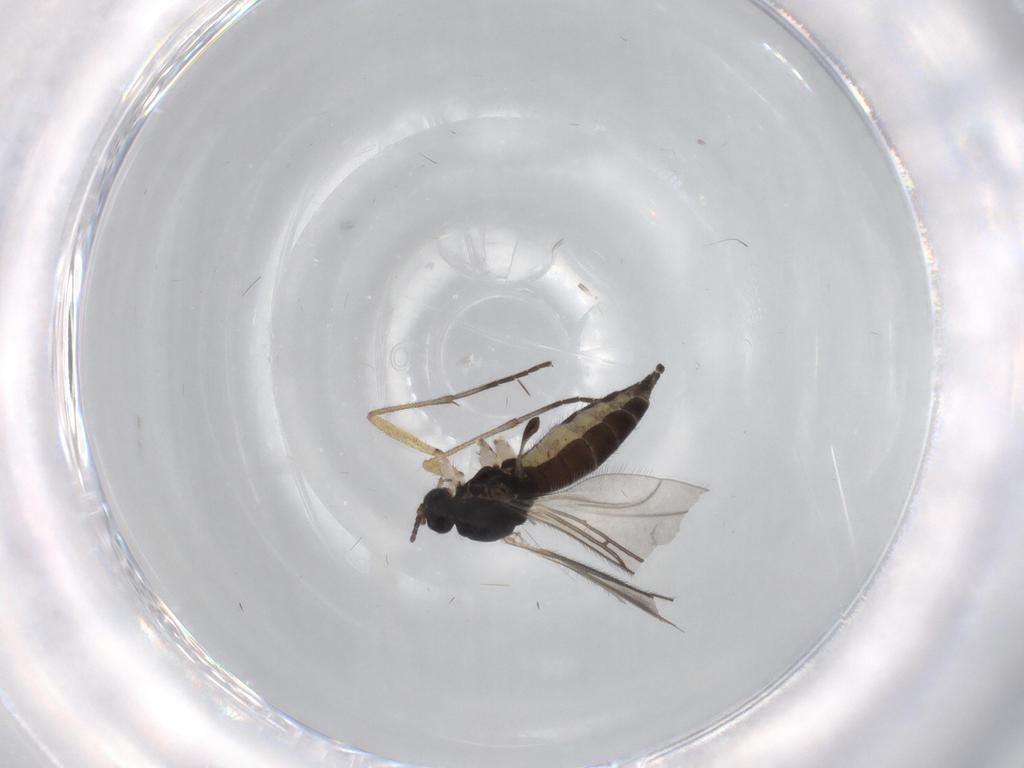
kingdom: Animalia
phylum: Arthropoda
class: Insecta
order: Diptera
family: Sciaridae
